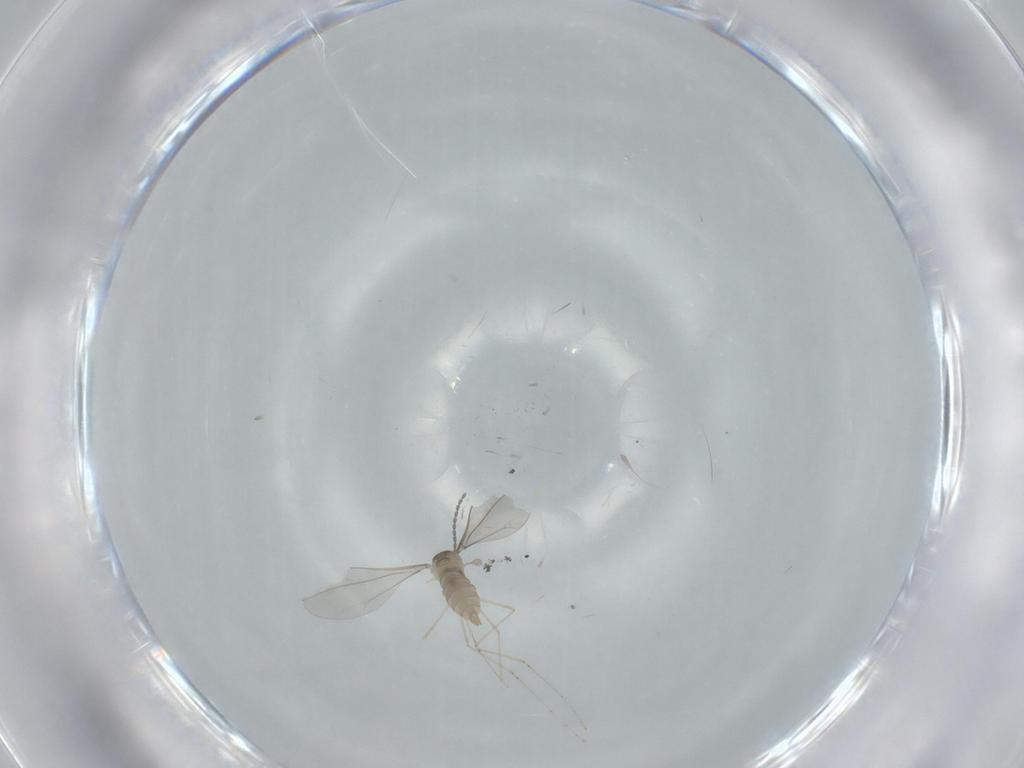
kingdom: Animalia
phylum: Arthropoda
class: Insecta
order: Diptera
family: Cecidomyiidae
